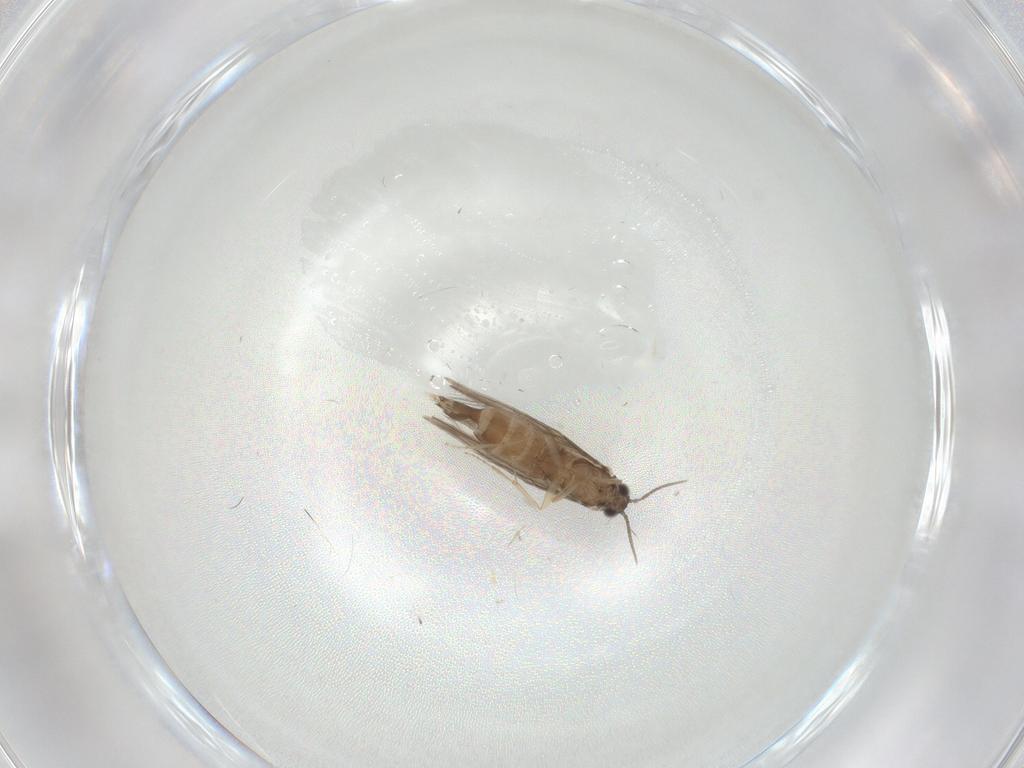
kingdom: Animalia
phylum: Arthropoda
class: Insecta
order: Trichoptera
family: Hydroptilidae
